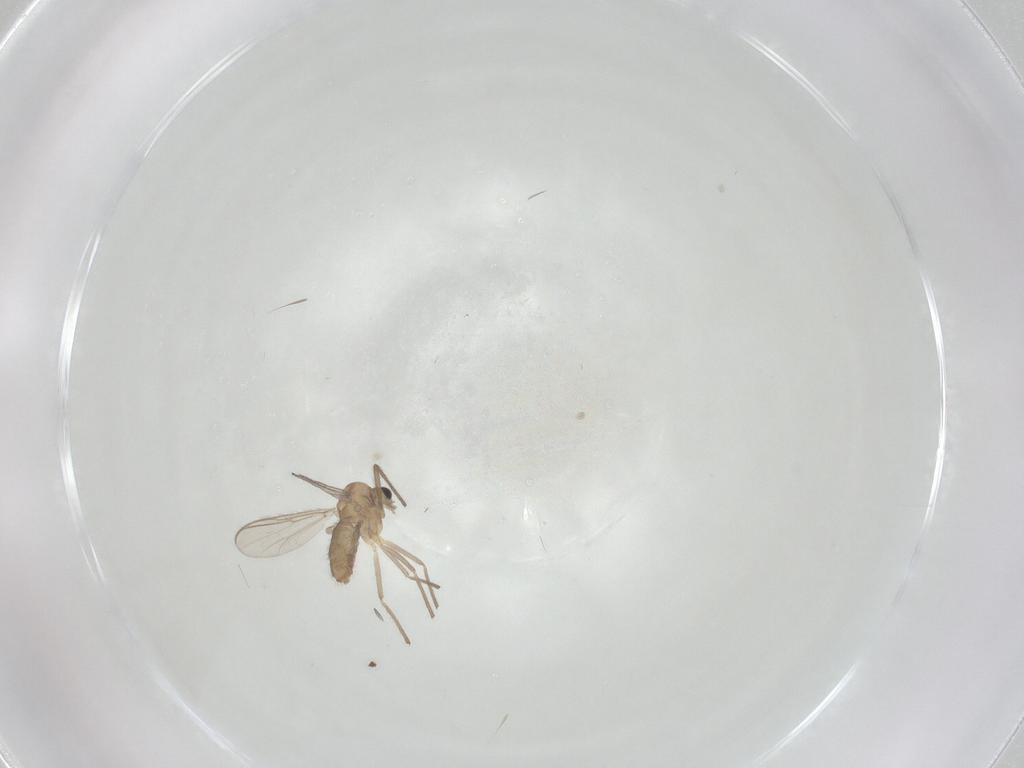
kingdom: Animalia
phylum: Arthropoda
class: Insecta
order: Diptera
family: Chironomidae
